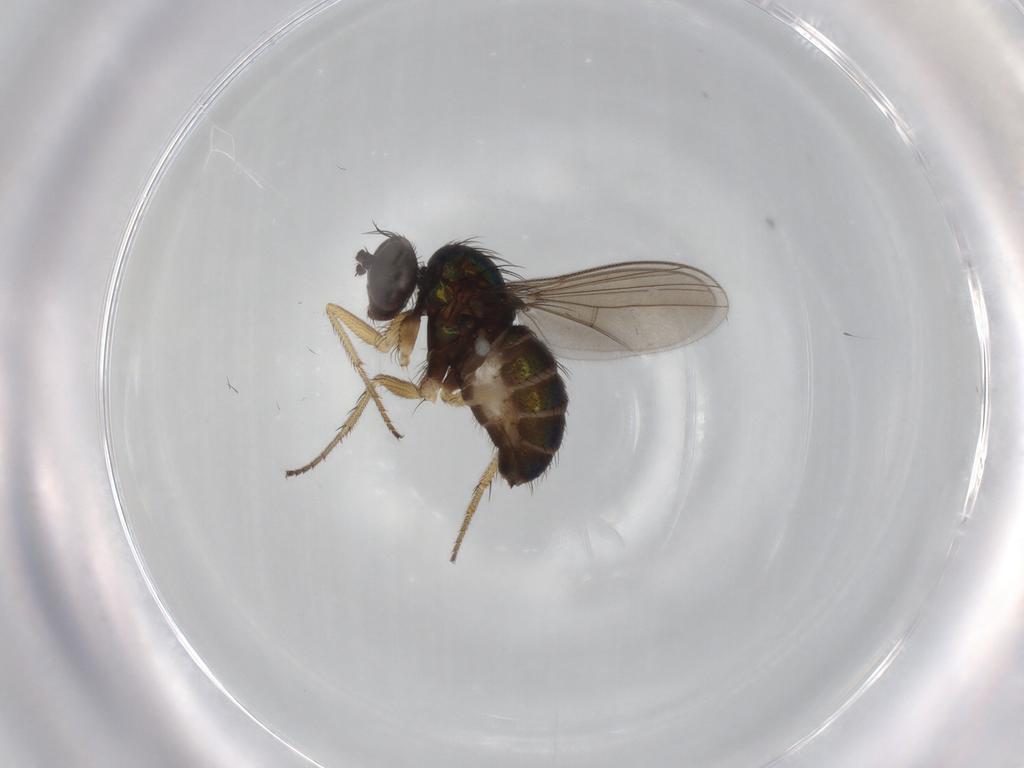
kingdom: Animalia
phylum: Arthropoda
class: Insecta
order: Diptera
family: Dolichopodidae
